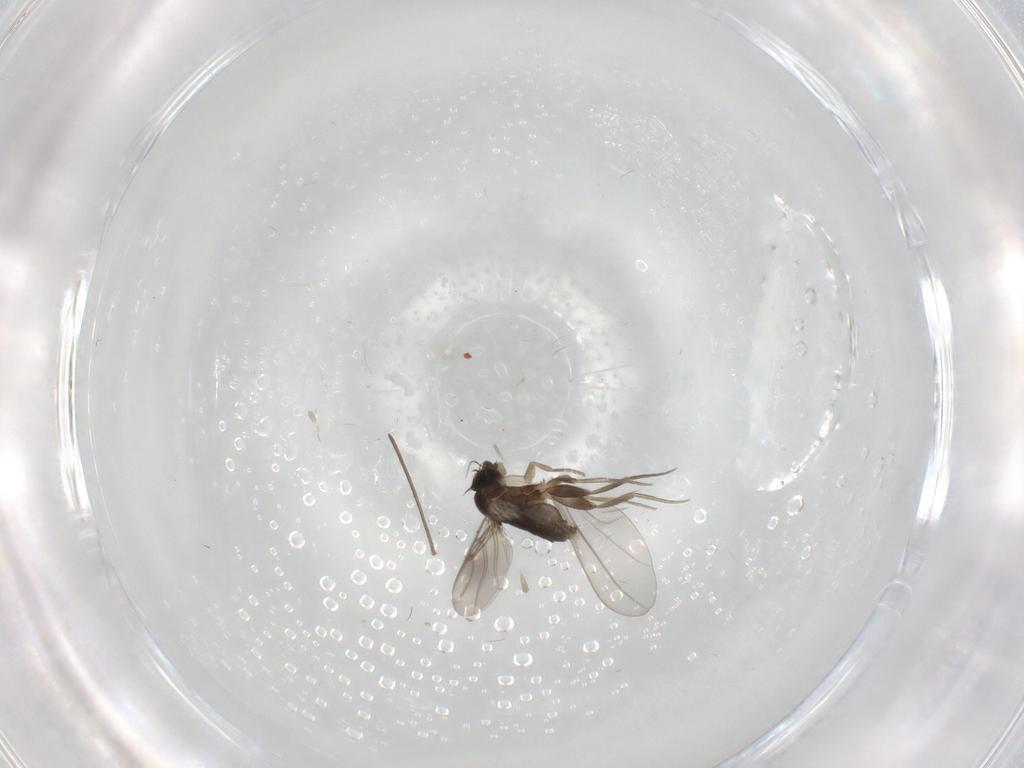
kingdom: Animalia
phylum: Arthropoda
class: Insecta
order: Diptera
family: Phoridae
